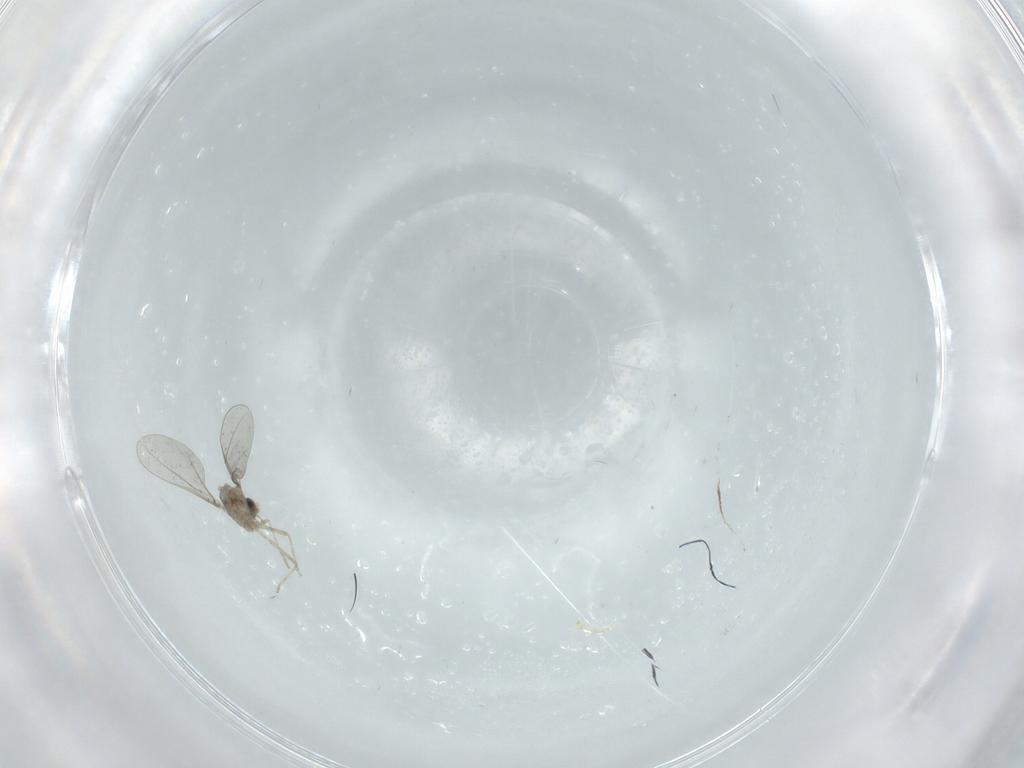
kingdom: Animalia
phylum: Arthropoda
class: Insecta
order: Diptera
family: Cecidomyiidae
